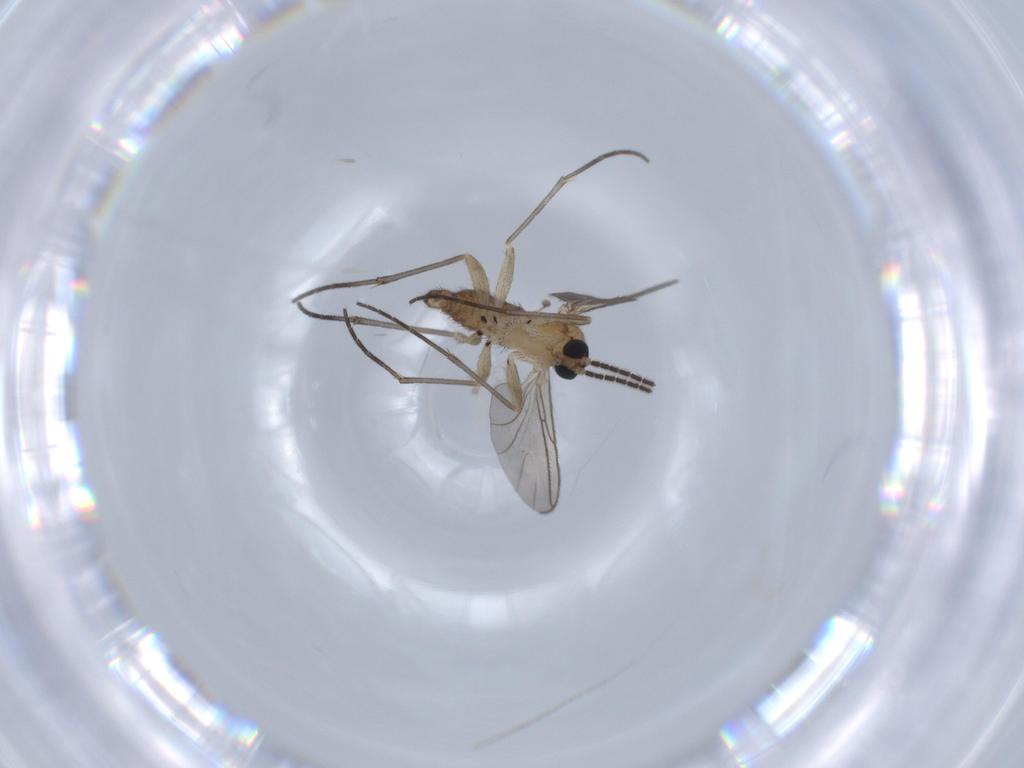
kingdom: Animalia
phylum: Arthropoda
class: Insecta
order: Diptera
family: Sciaridae
